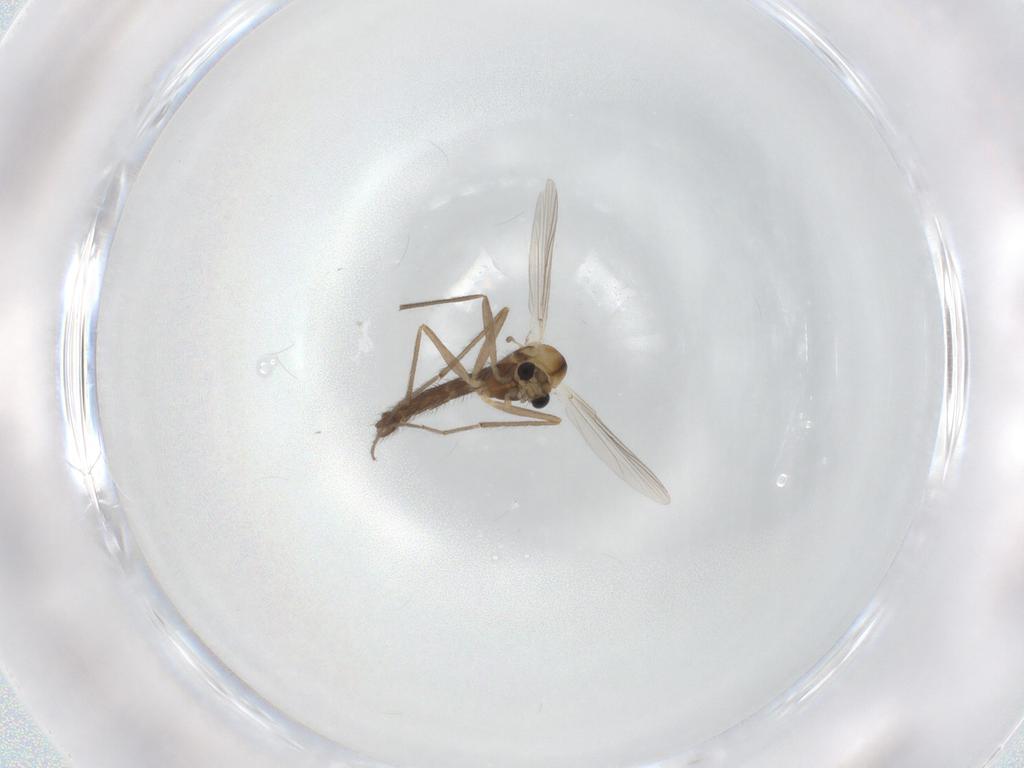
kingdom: Animalia
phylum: Arthropoda
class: Insecta
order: Diptera
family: Chironomidae
